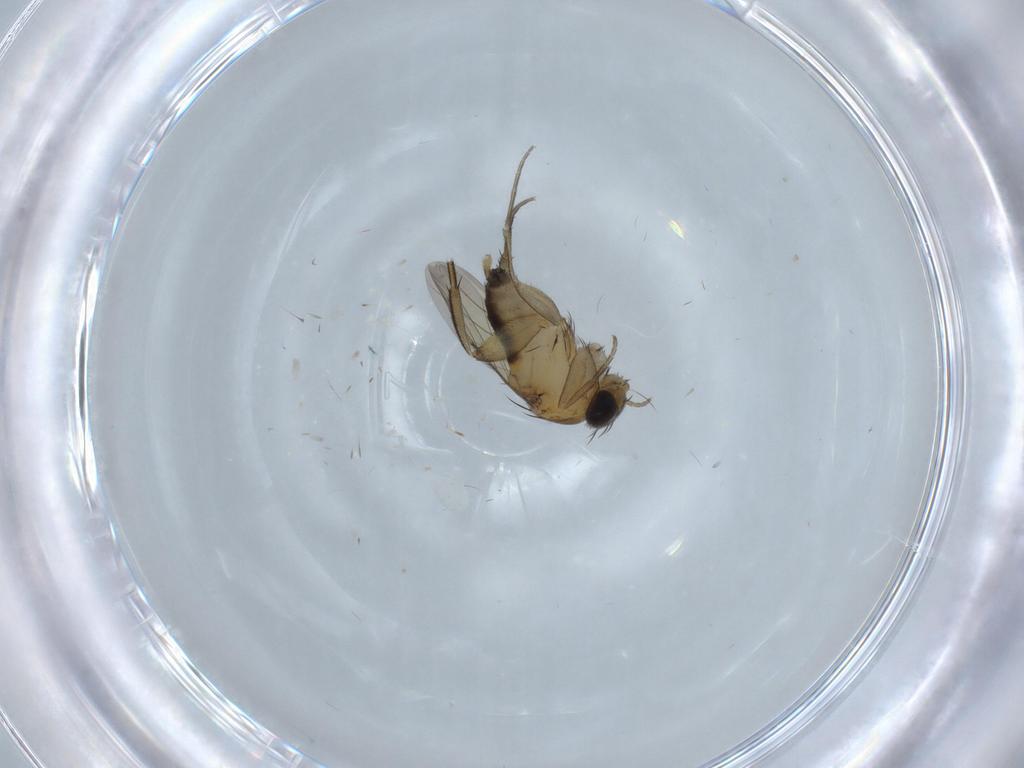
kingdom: Animalia
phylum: Arthropoda
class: Insecta
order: Diptera
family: Phoridae
